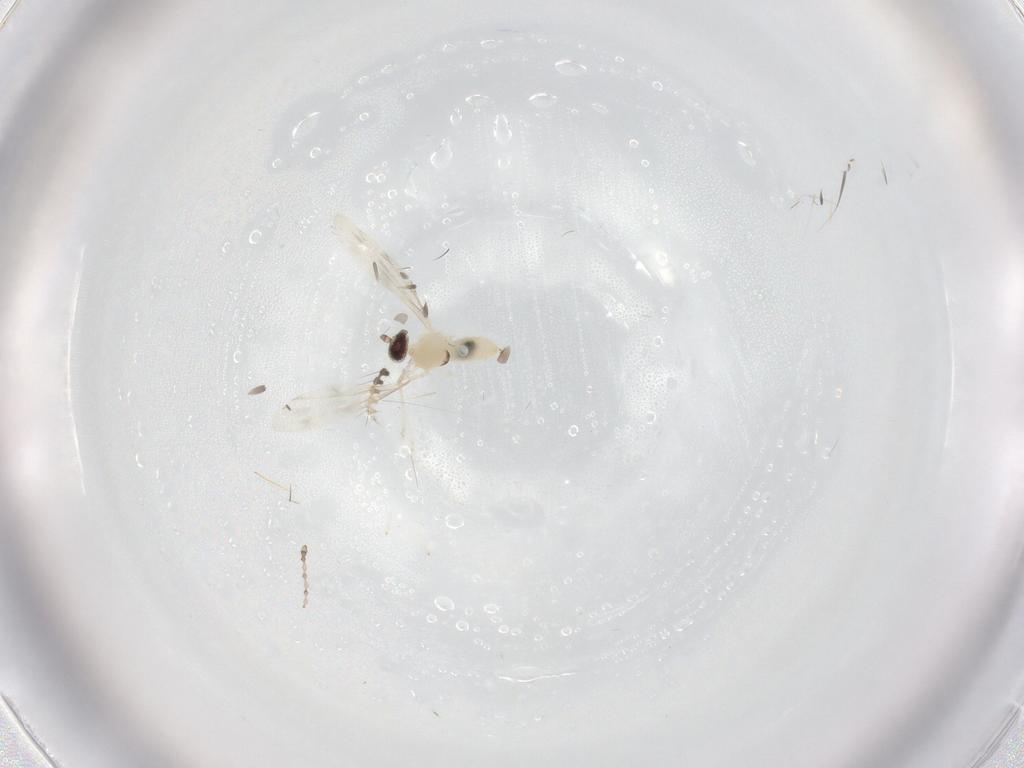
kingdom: Animalia
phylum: Arthropoda
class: Insecta
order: Diptera
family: Cecidomyiidae
